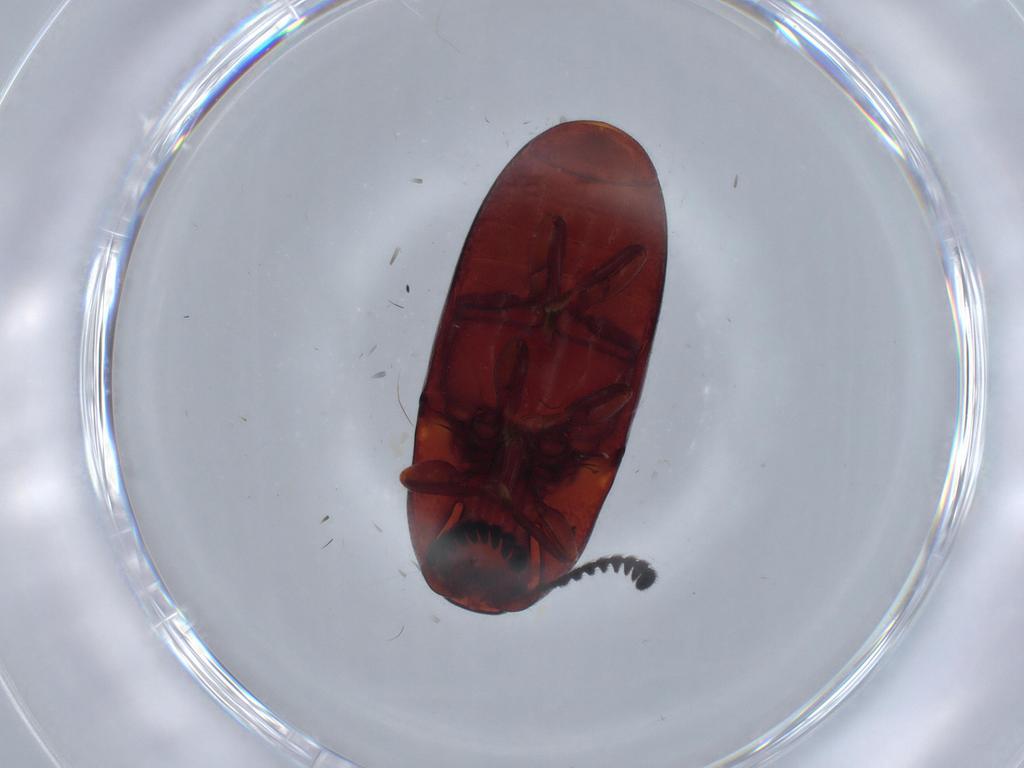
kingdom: Animalia
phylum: Arthropoda
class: Insecta
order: Coleoptera
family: Elateridae
